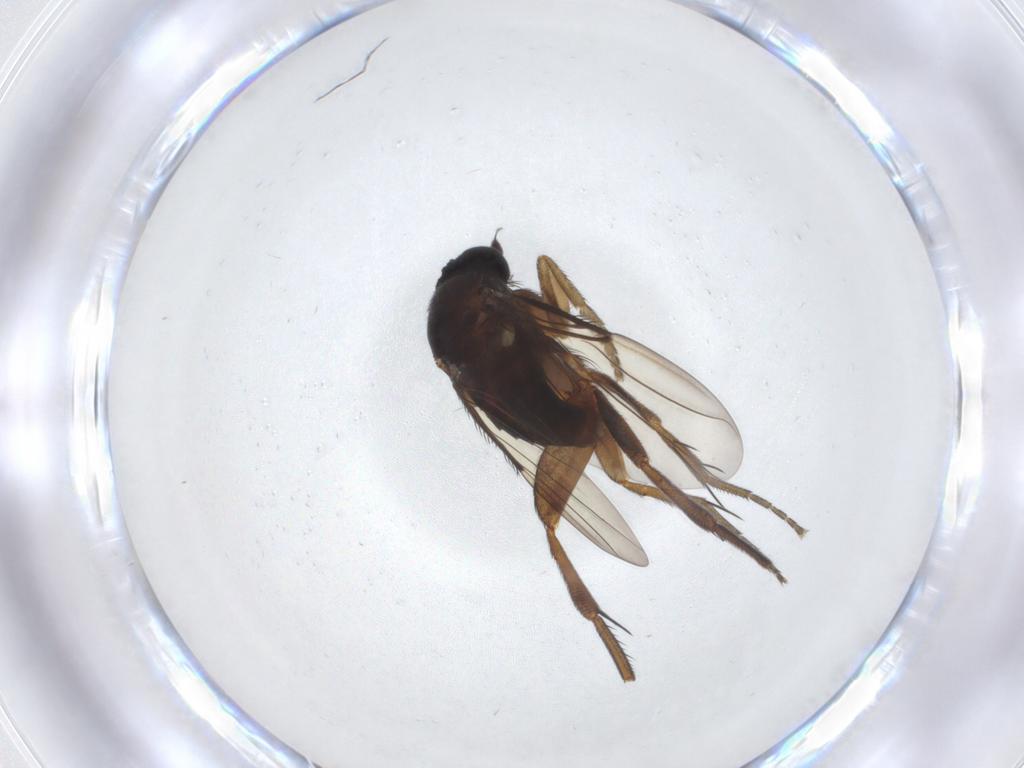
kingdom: Animalia
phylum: Arthropoda
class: Insecta
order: Diptera
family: Phoridae
